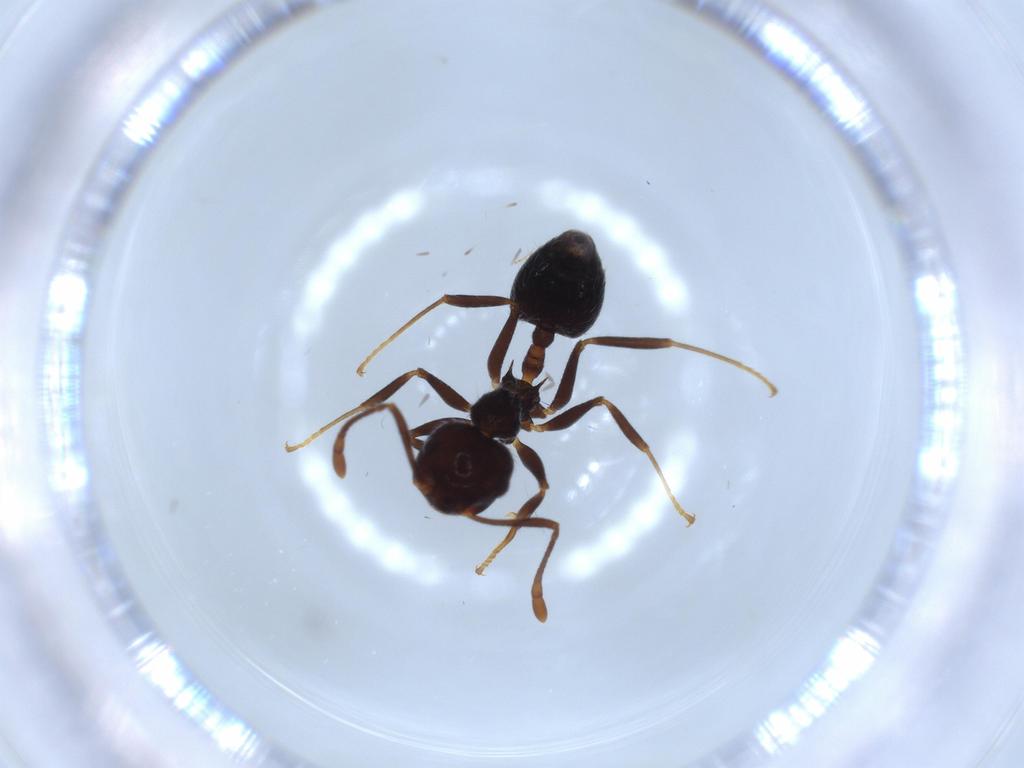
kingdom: Animalia
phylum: Arthropoda
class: Insecta
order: Hymenoptera
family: Formicidae
